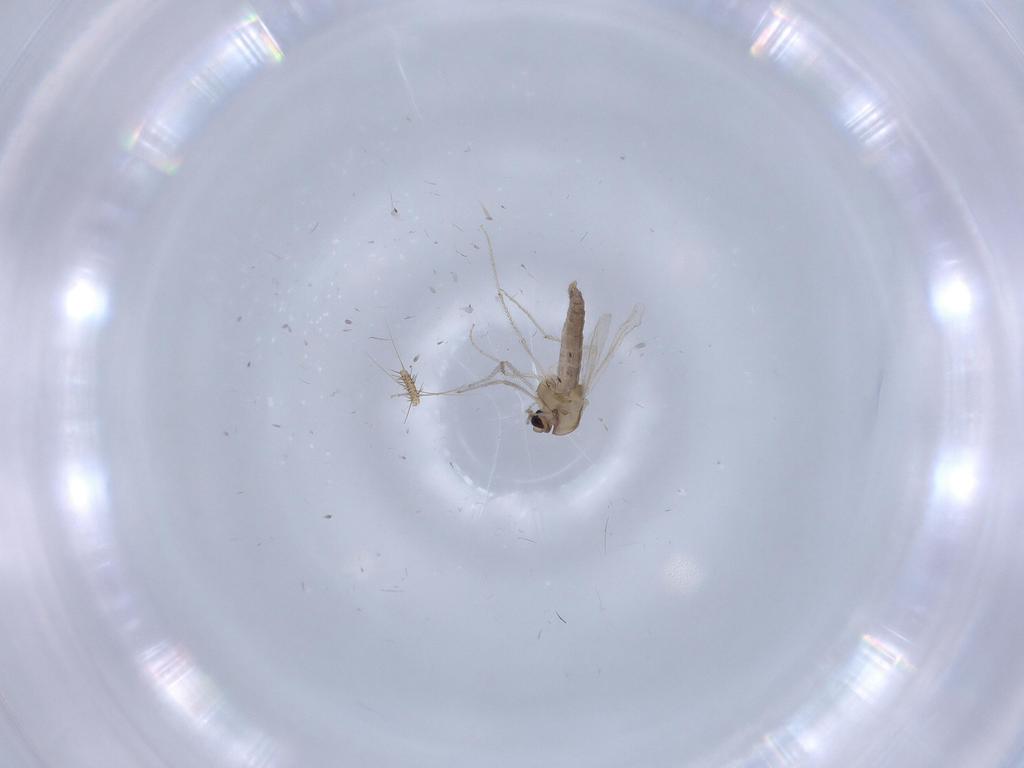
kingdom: Animalia
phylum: Arthropoda
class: Insecta
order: Diptera
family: Chironomidae
